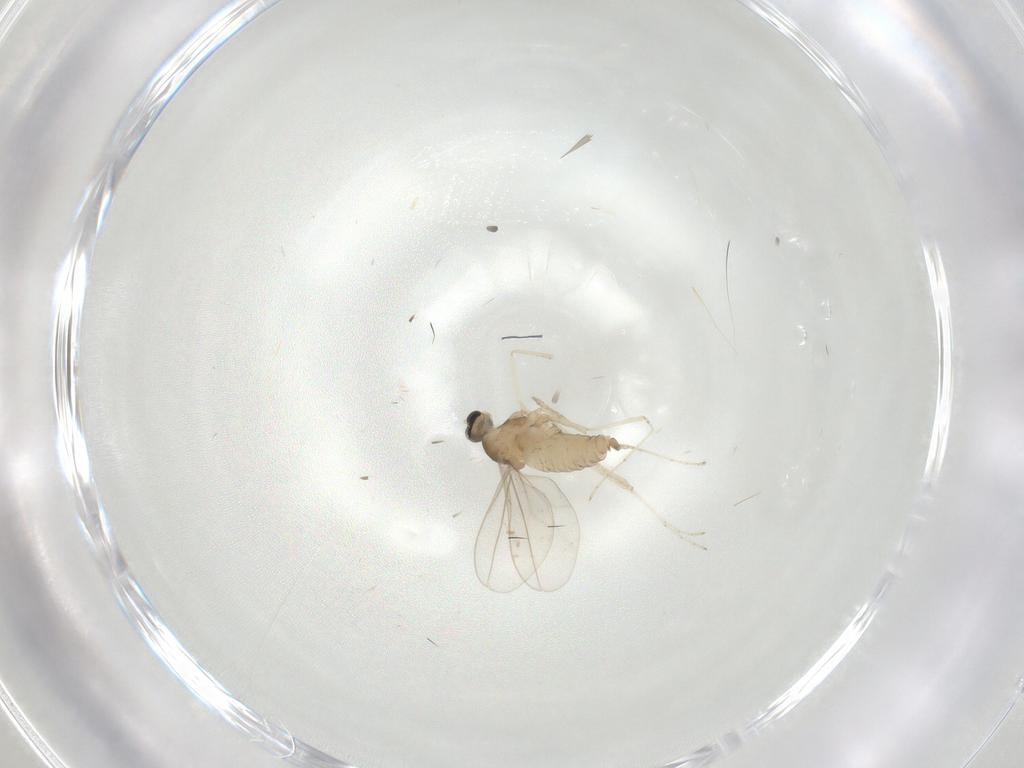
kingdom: Animalia
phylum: Arthropoda
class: Insecta
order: Diptera
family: Cecidomyiidae
